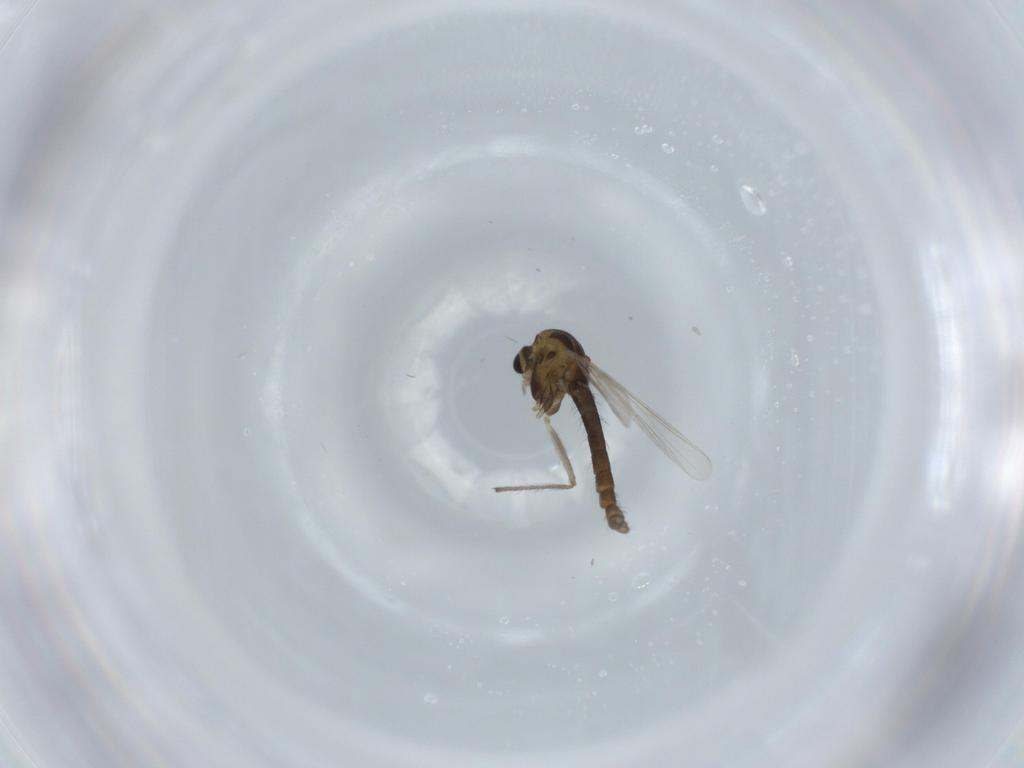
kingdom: Animalia
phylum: Arthropoda
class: Insecta
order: Diptera
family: Chironomidae
